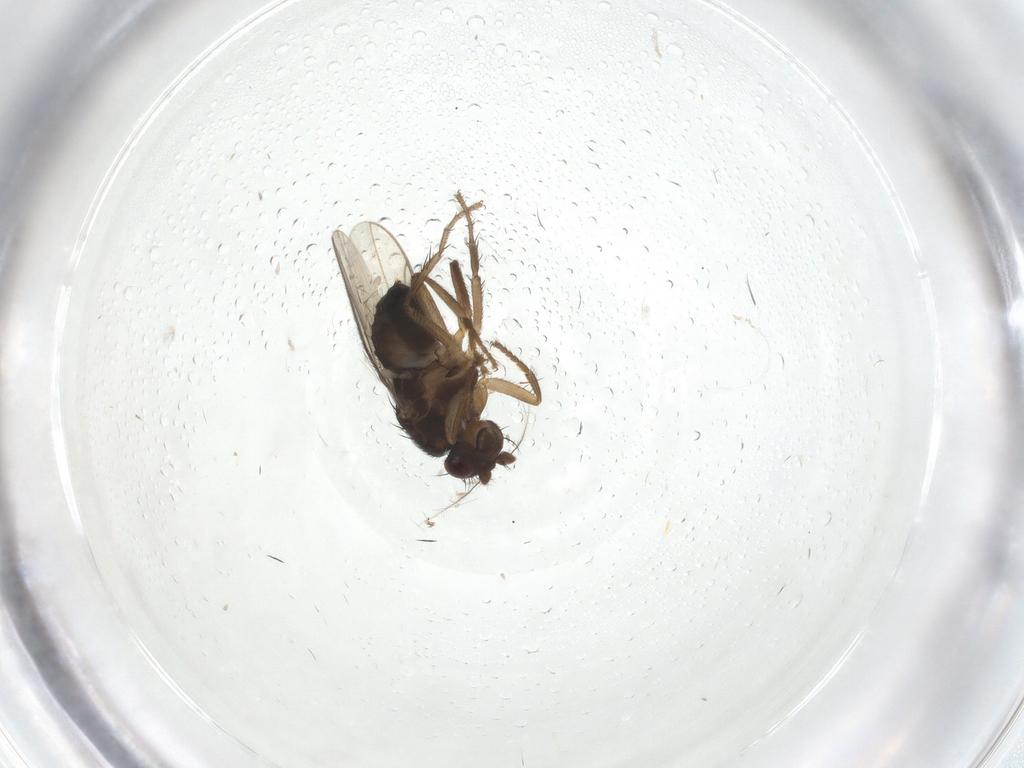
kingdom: Animalia
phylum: Arthropoda
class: Insecta
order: Diptera
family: Sphaeroceridae
